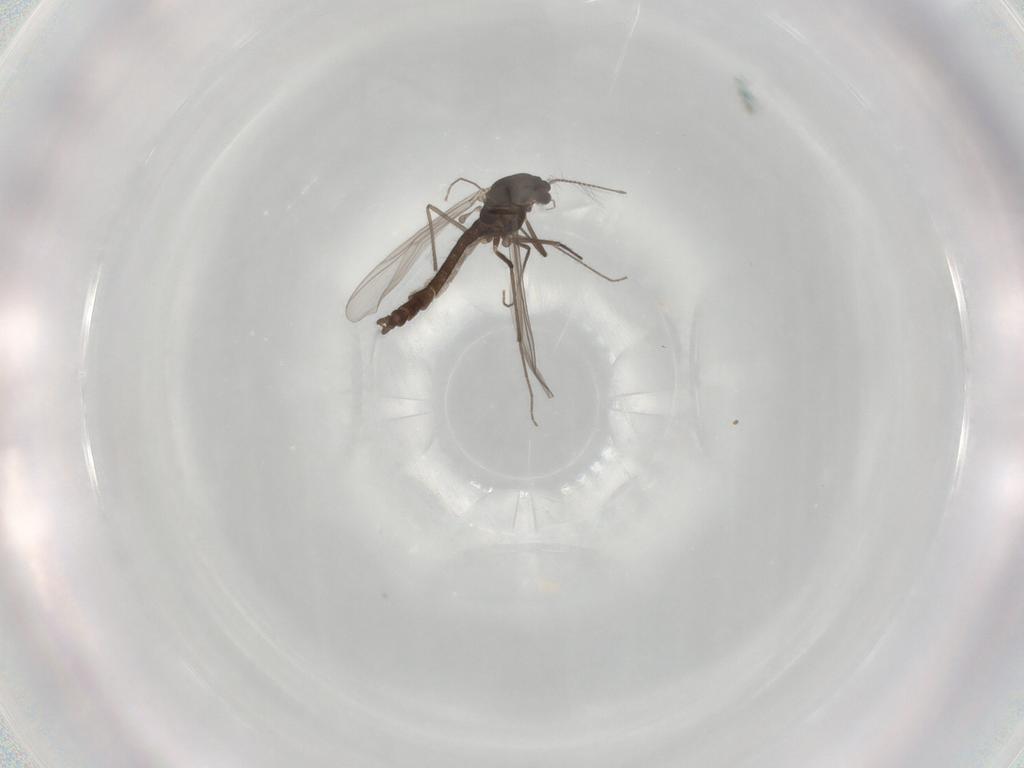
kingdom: Animalia
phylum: Arthropoda
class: Insecta
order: Diptera
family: Chironomidae
